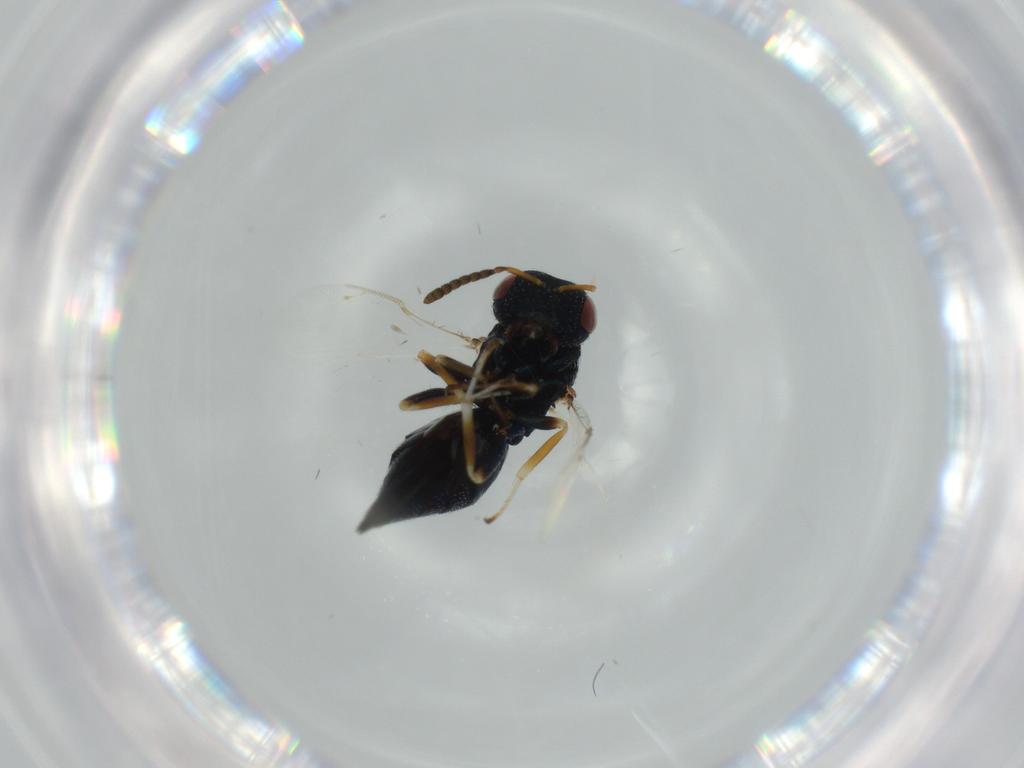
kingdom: Animalia
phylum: Arthropoda
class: Insecta
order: Hymenoptera
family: Pteromalidae
